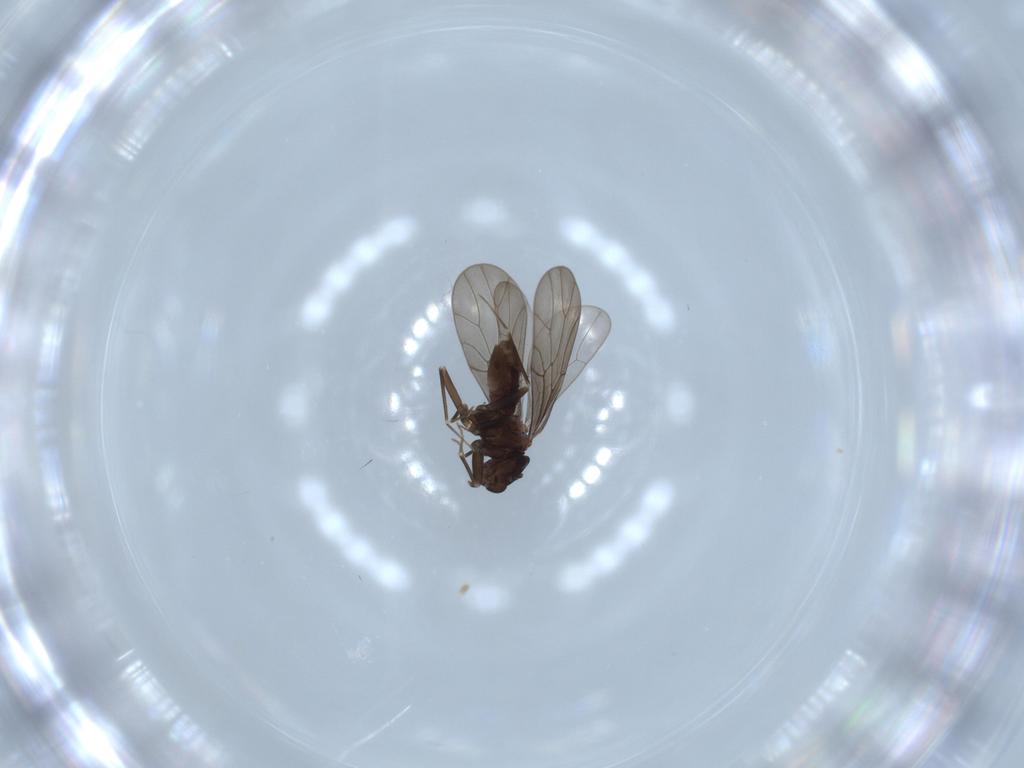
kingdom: Animalia
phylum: Arthropoda
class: Insecta
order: Psocodea
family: Lepidopsocidae
